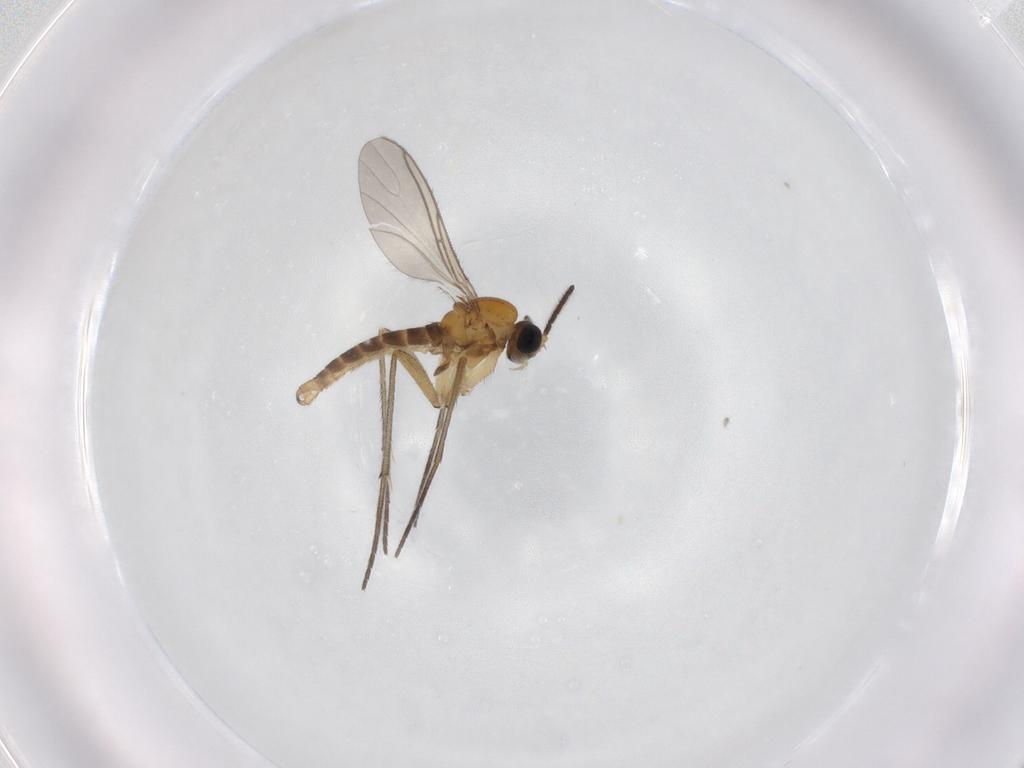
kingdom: Animalia
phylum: Arthropoda
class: Insecta
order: Diptera
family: Sciaridae
